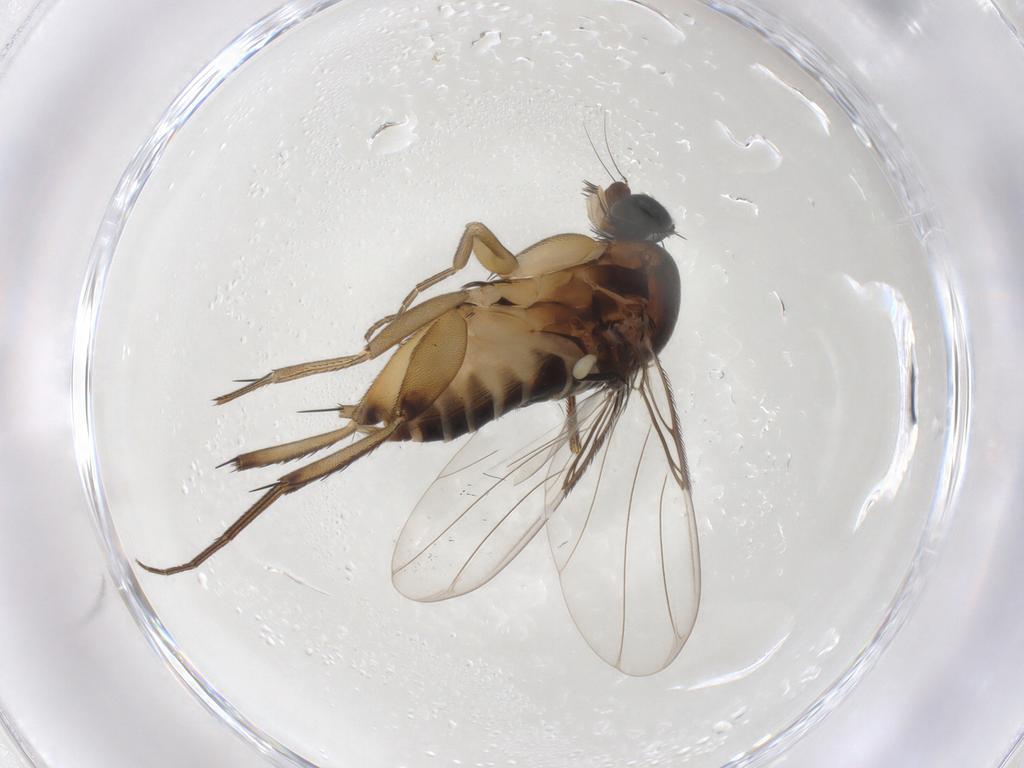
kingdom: Animalia
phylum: Arthropoda
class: Insecta
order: Diptera
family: Phoridae
